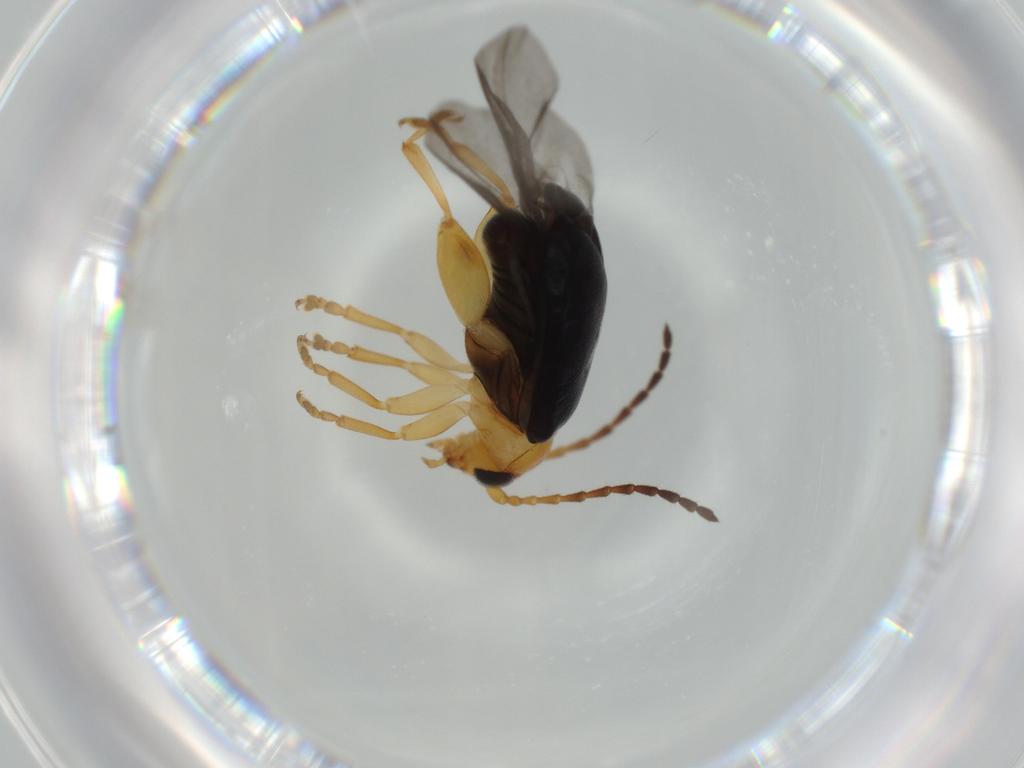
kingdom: Animalia
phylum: Arthropoda
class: Insecta
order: Coleoptera
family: Chrysomelidae
